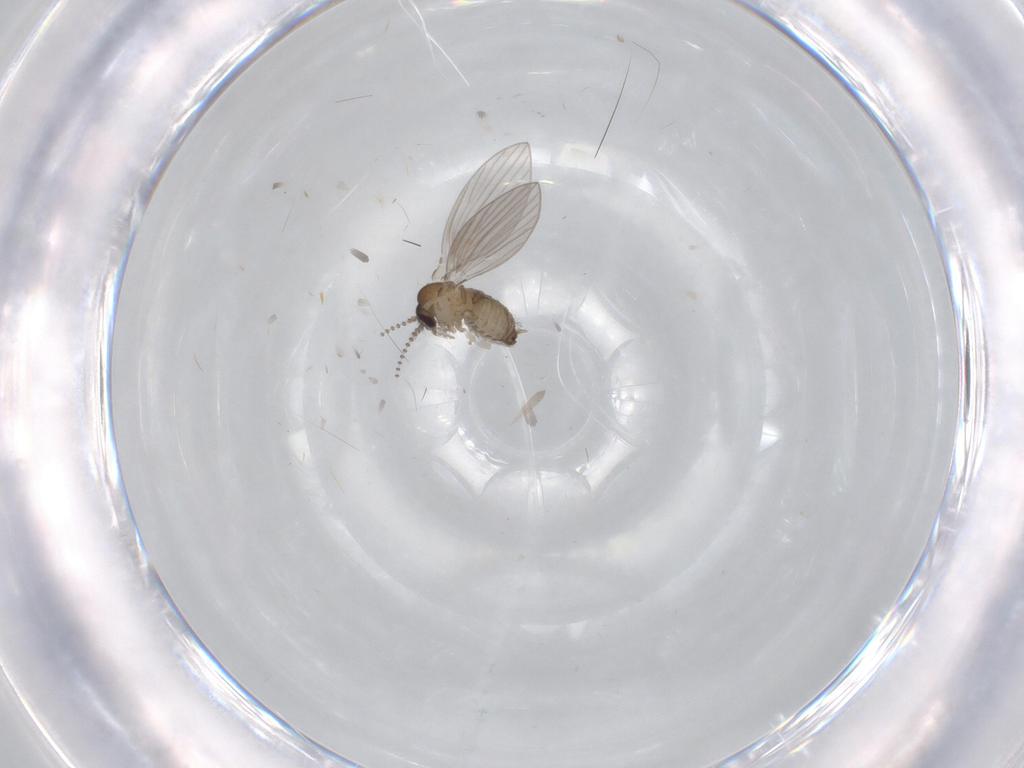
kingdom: Animalia
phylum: Arthropoda
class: Insecta
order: Diptera
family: Psychodidae
